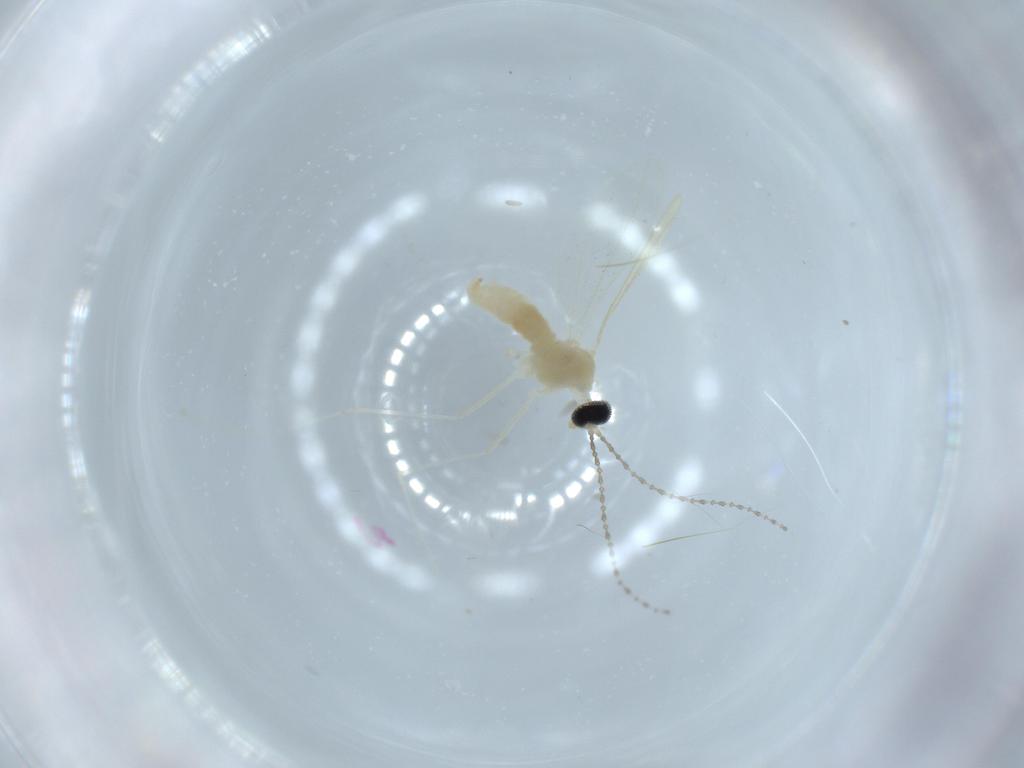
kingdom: Animalia
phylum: Arthropoda
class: Insecta
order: Diptera
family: Cecidomyiidae
